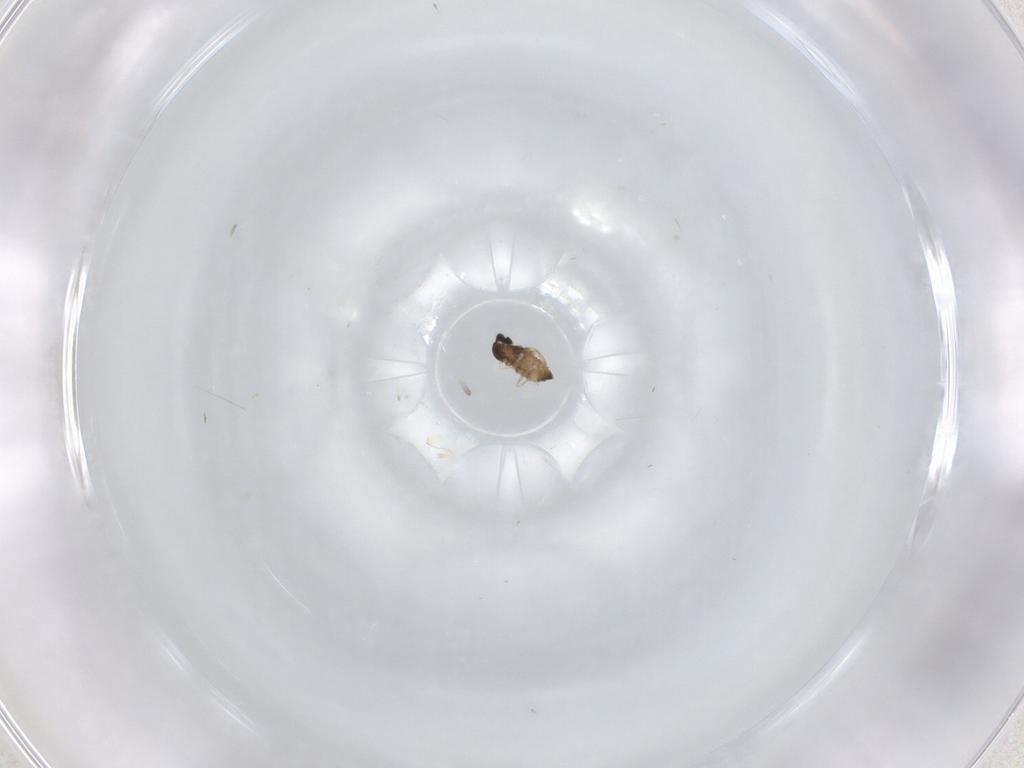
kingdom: Animalia
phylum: Arthropoda
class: Insecta
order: Diptera
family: Cecidomyiidae
